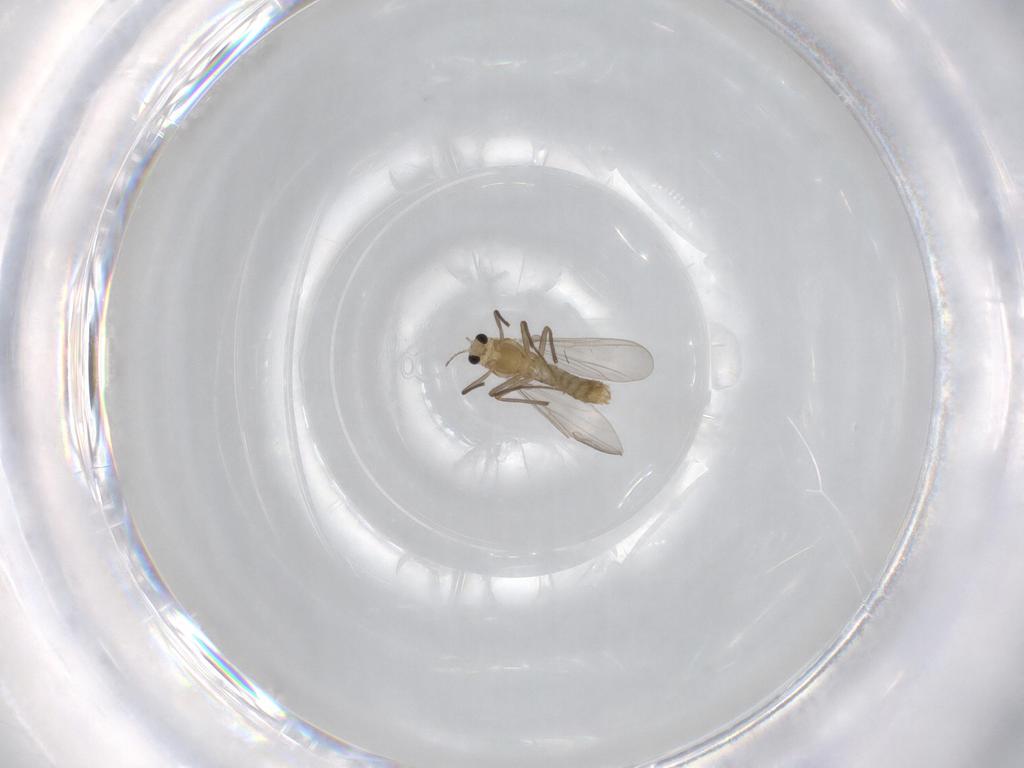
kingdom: Animalia
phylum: Arthropoda
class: Insecta
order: Diptera
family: Chironomidae
